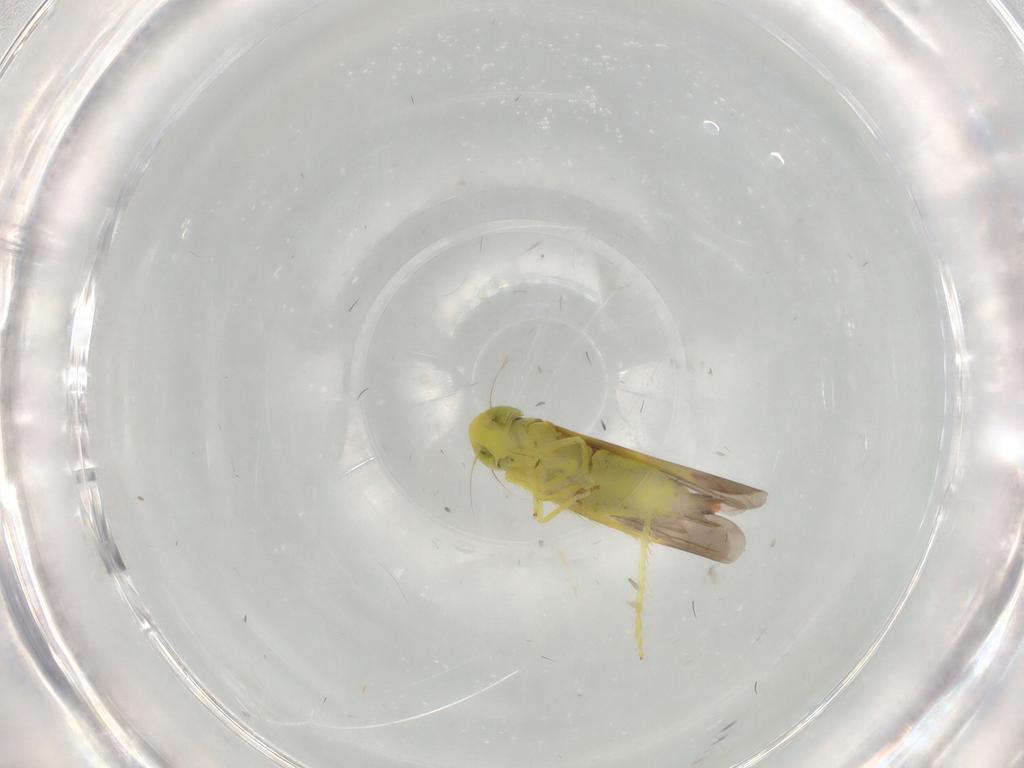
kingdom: Animalia
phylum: Arthropoda
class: Insecta
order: Hemiptera
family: Cicadellidae
